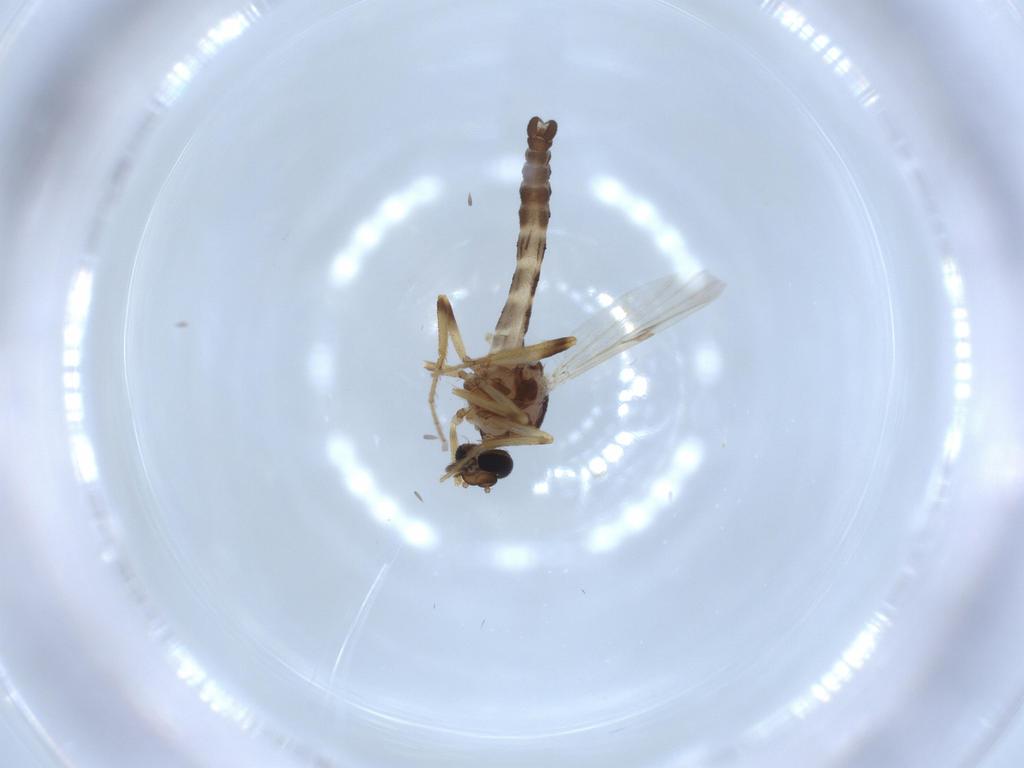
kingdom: Animalia
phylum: Arthropoda
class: Insecta
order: Diptera
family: Ceratopogonidae
